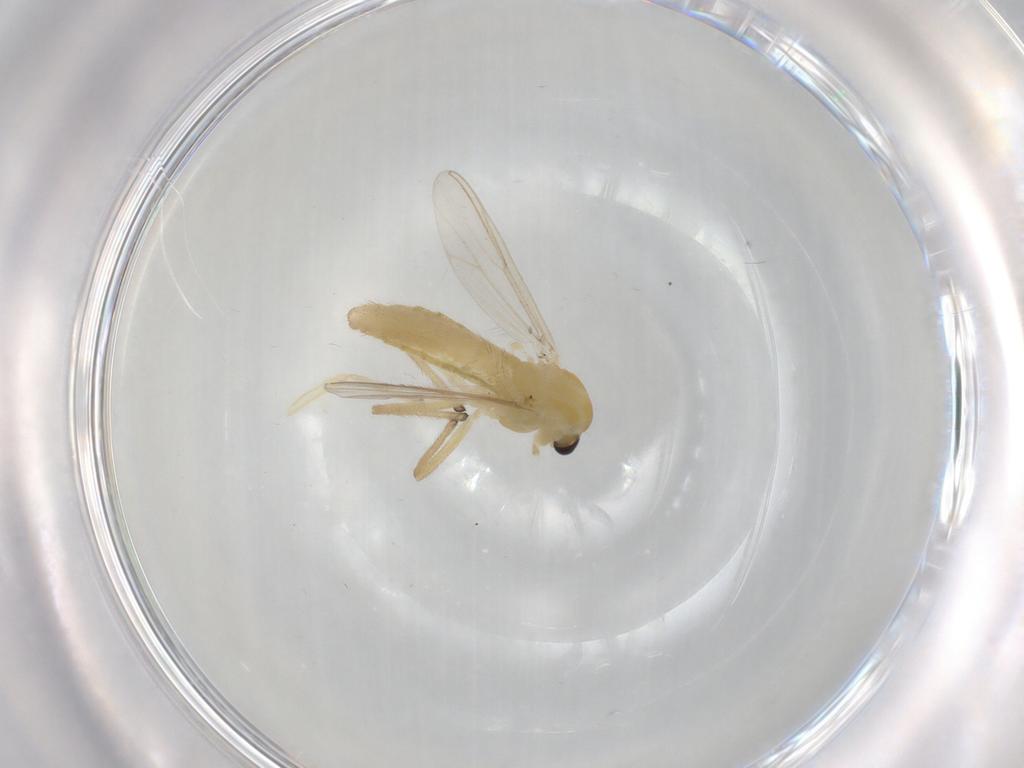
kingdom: Animalia
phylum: Arthropoda
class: Insecta
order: Diptera
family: Chironomidae
